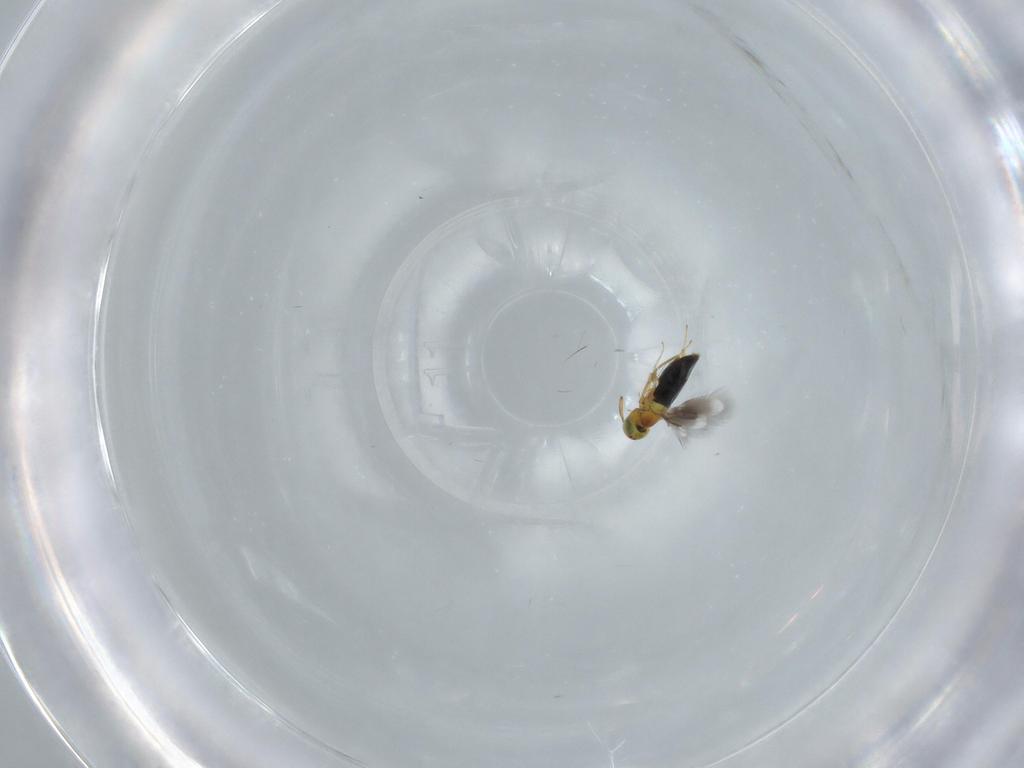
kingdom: Animalia
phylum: Arthropoda
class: Insecta
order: Hymenoptera
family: Signiphoridae
